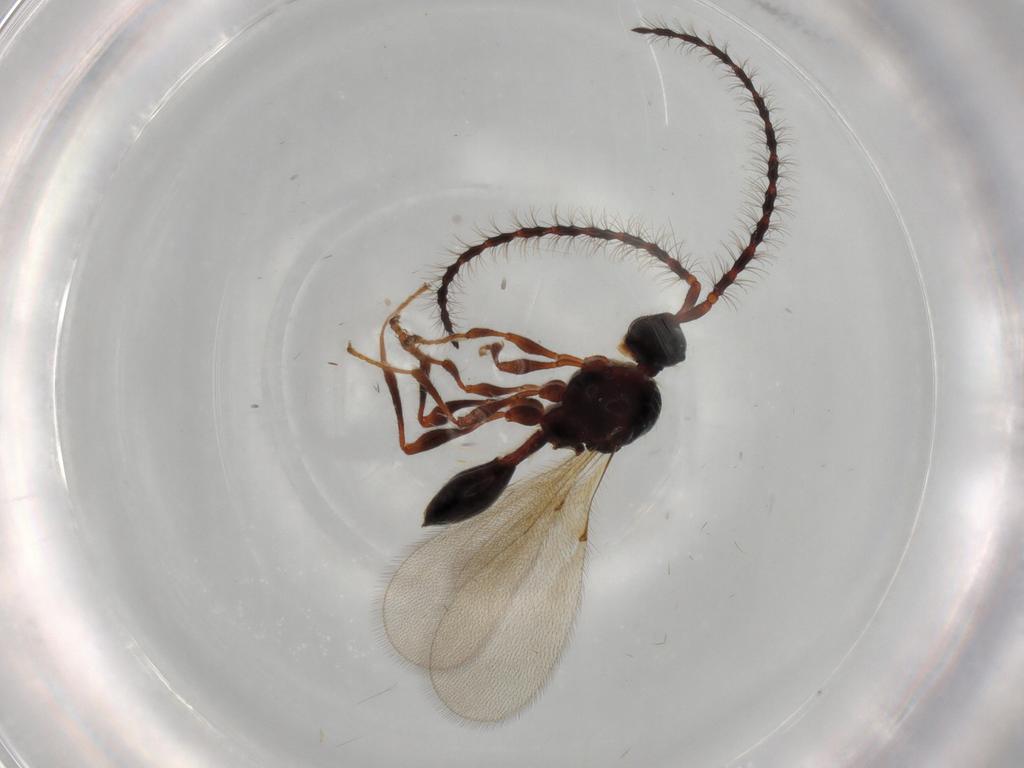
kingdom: Animalia
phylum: Arthropoda
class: Insecta
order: Hymenoptera
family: Diapriidae
